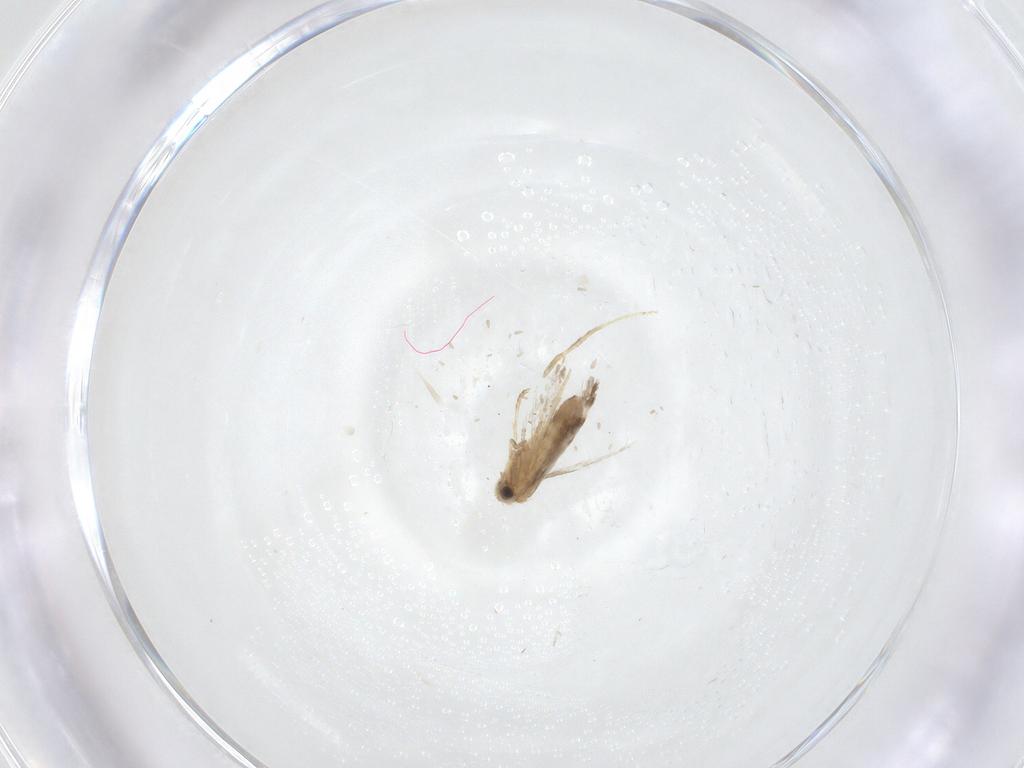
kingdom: Animalia
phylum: Arthropoda
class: Insecta
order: Lepidoptera
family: Nepticulidae
